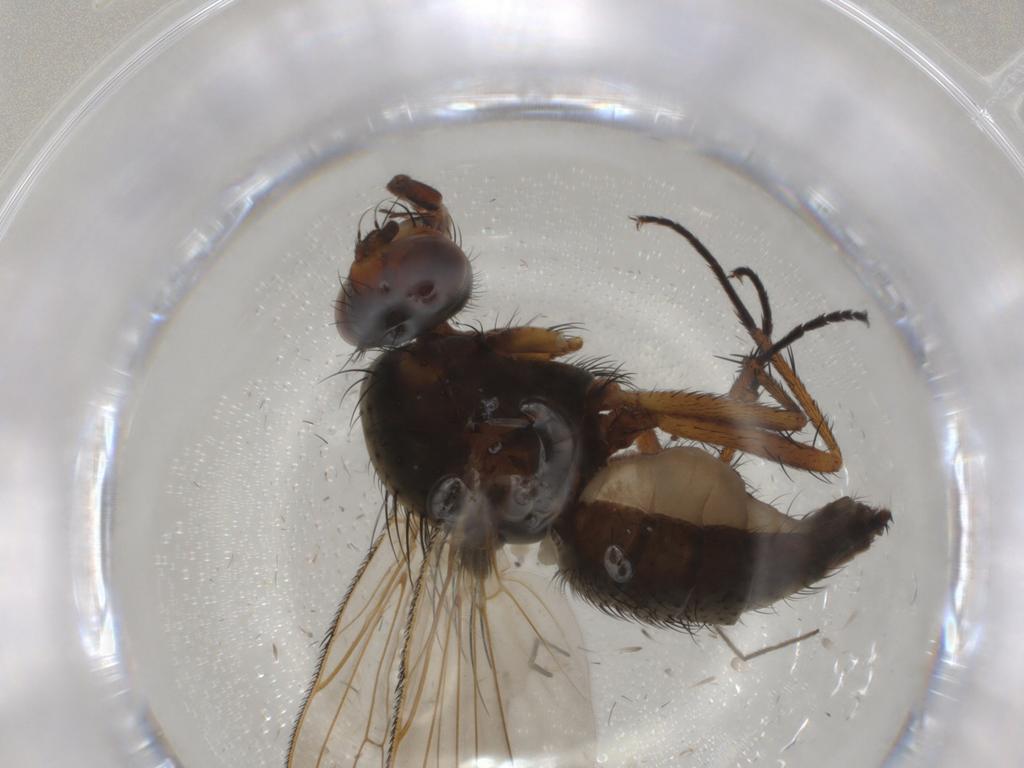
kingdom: Animalia
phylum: Arthropoda
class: Insecta
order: Diptera
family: Anthomyiidae
